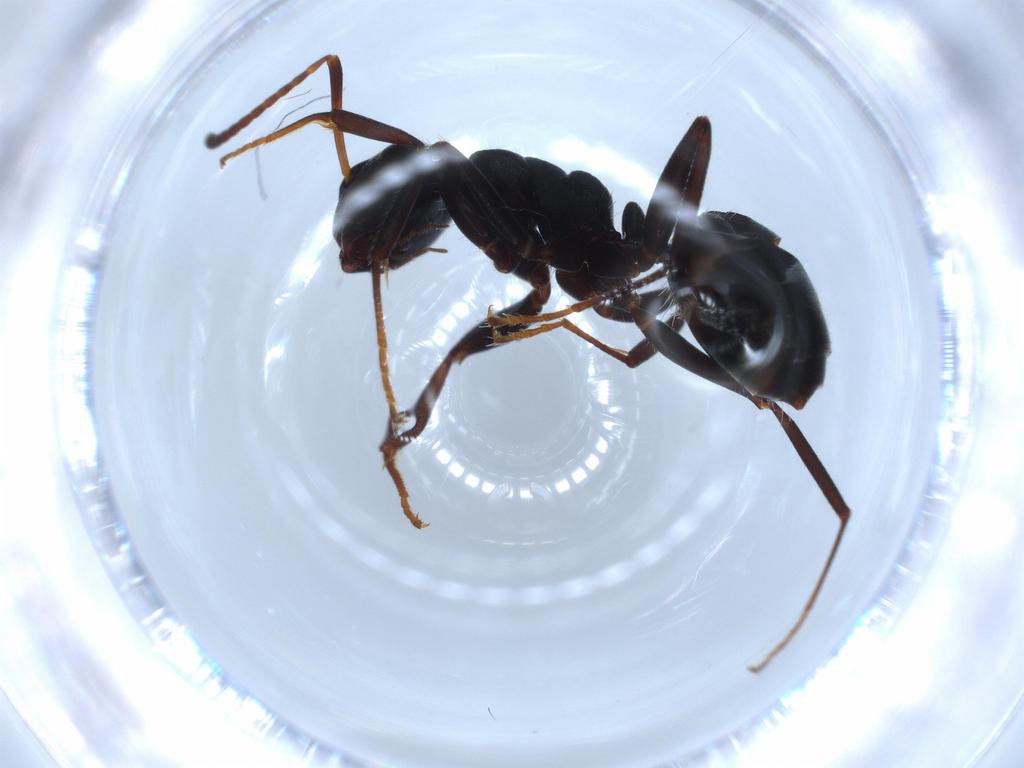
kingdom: Animalia
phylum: Arthropoda
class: Insecta
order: Hymenoptera
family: Formicidae
